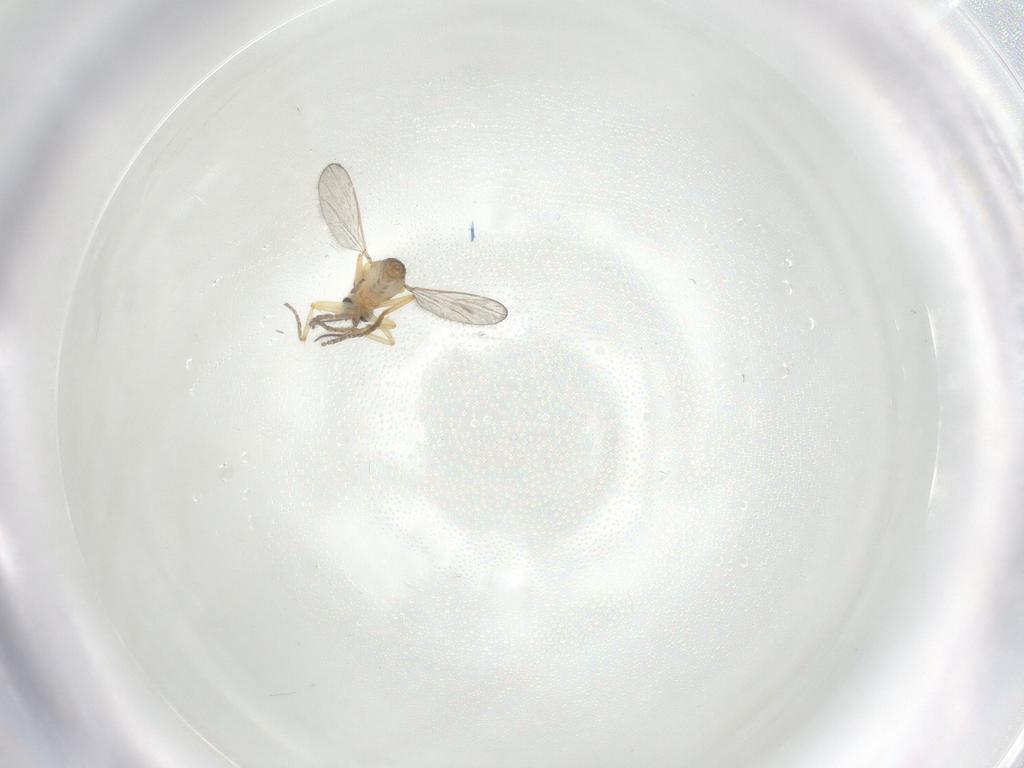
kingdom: Animalia
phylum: Arthropoda
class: Insecta
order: Diptera
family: Ceratopogonidae
